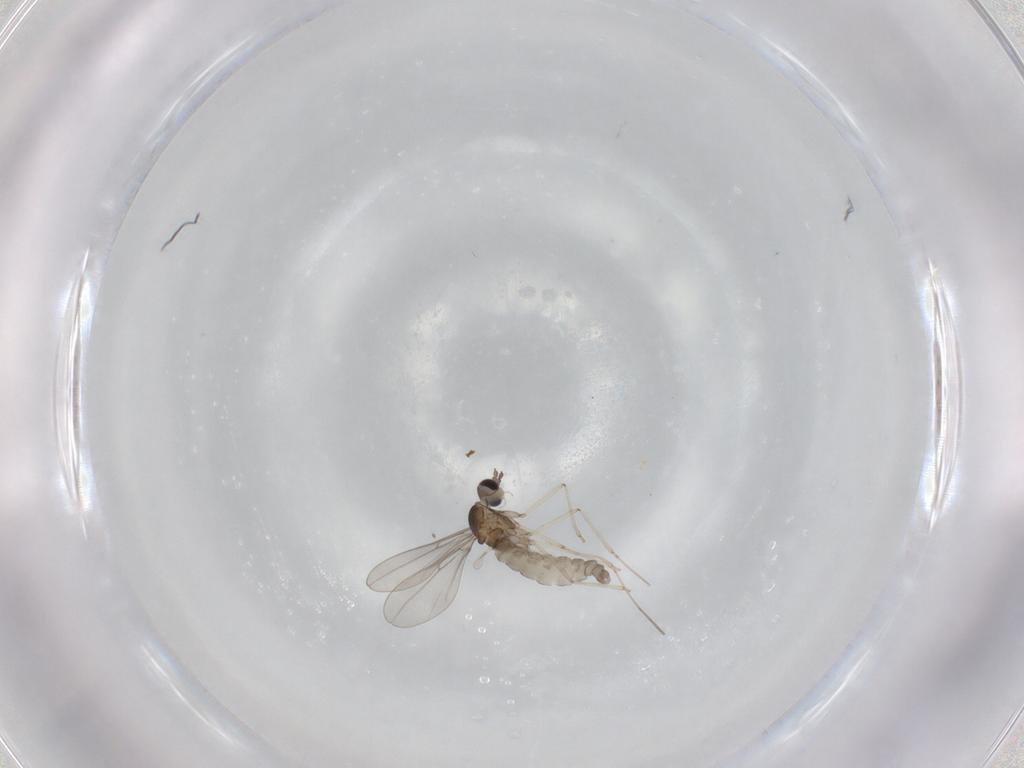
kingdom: Animalia
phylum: Arthropoda
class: Insecta
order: Diptera
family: Cecidomyiidae
